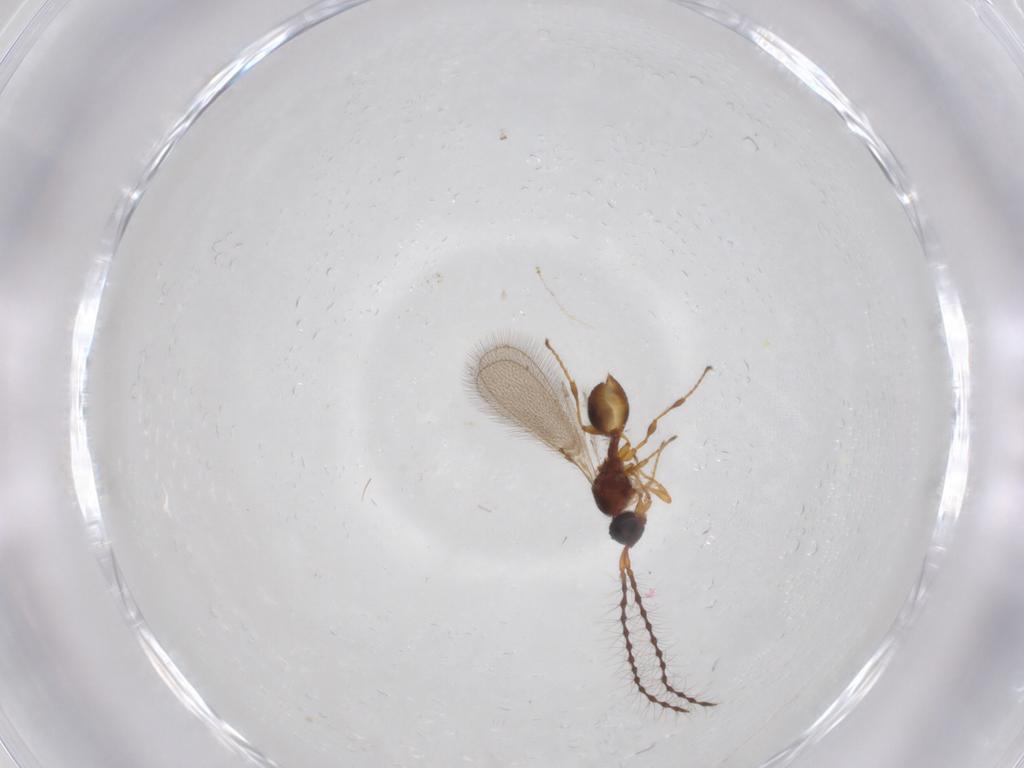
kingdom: Animalia
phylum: Arthropoda
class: Insecta
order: Hymenoptera
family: Diapriidae
